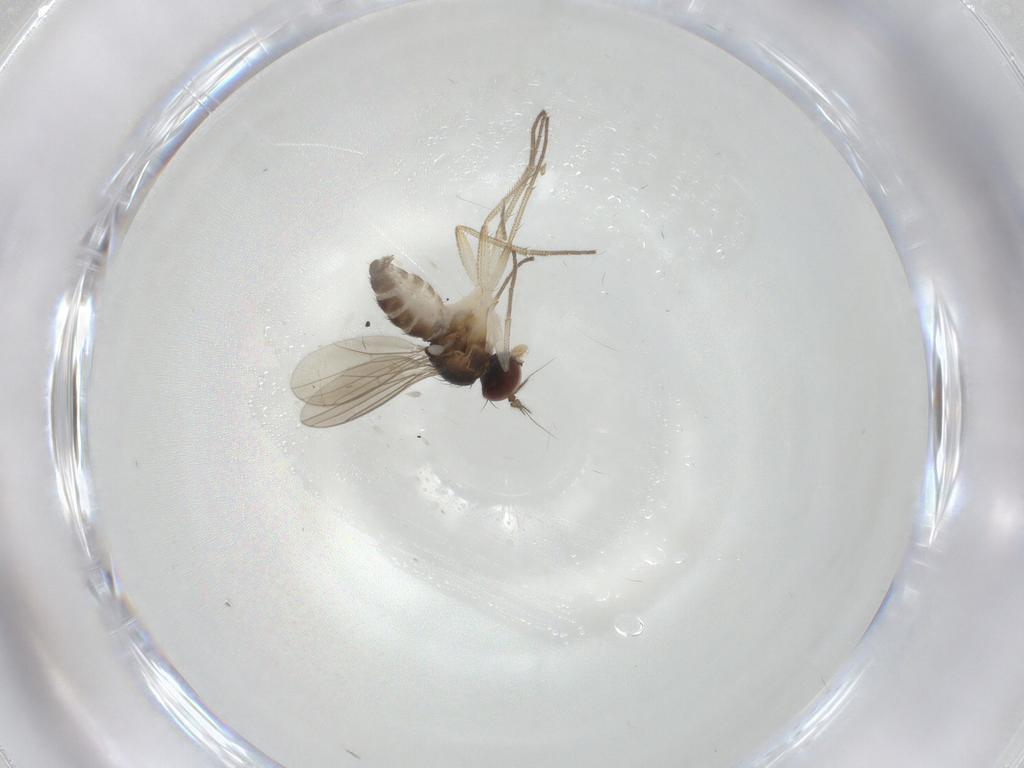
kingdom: Animalia
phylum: Arthropoda
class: Insecta
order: Diptera
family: Dolichopodidae
